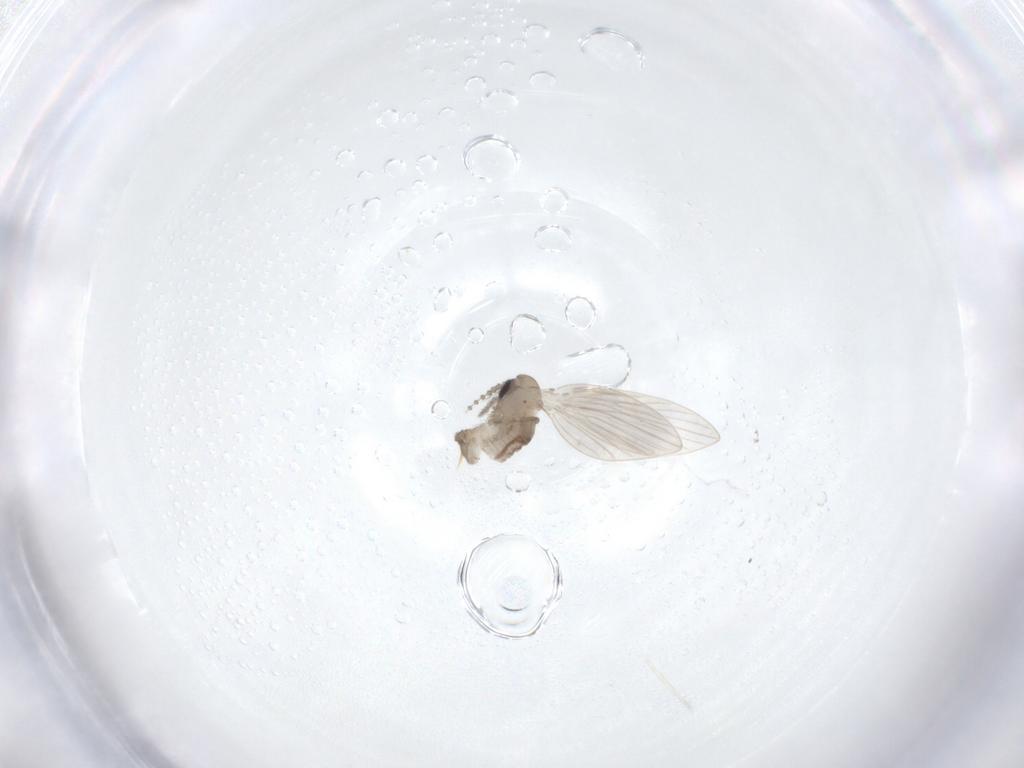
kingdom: Animalia
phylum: Arthropoda
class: Insecta
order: Diptera
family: Psychodidae
